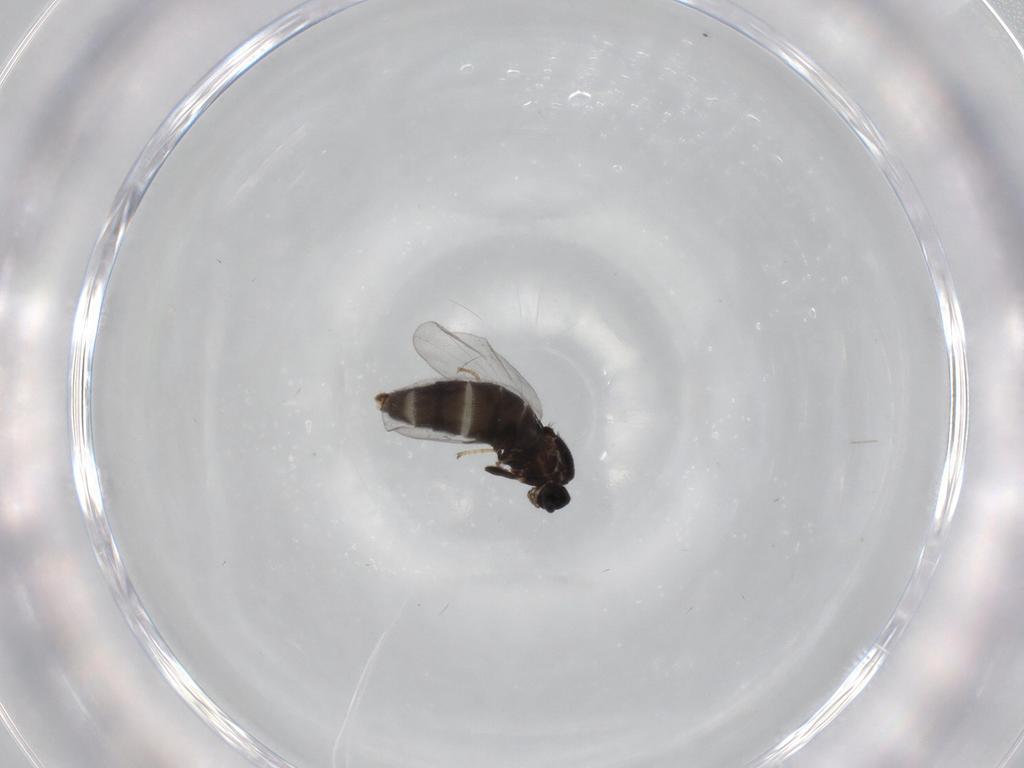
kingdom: Animalia
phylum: Arthropoda
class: Insecta
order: Diptera
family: Scatopsidae
